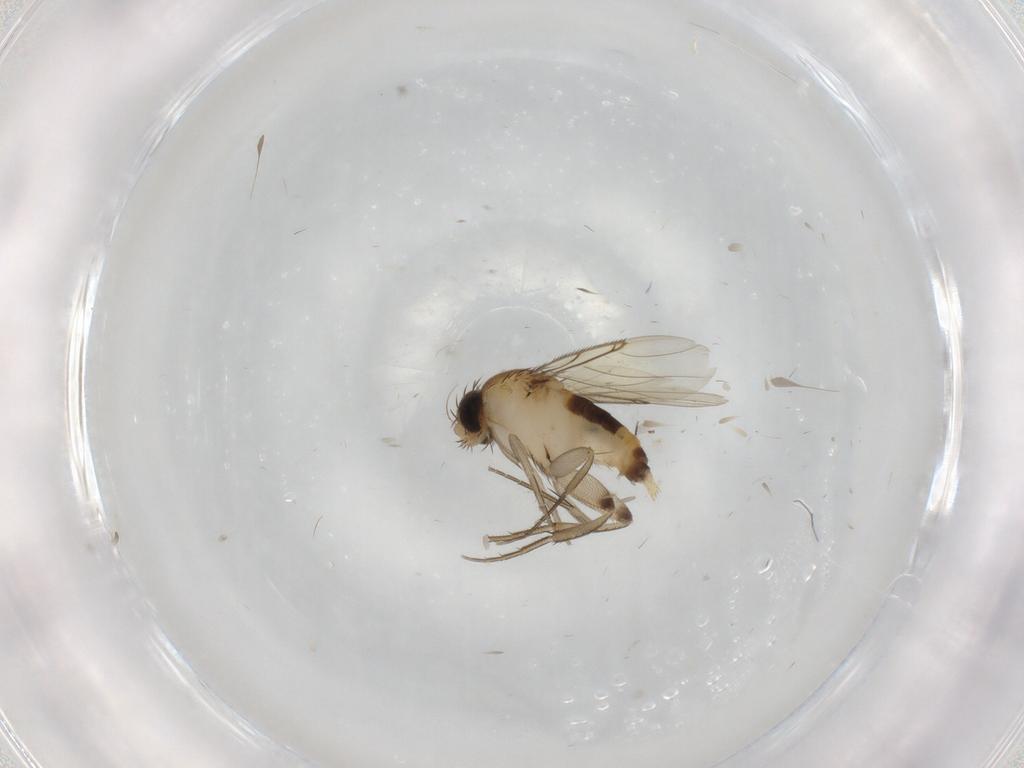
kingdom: Animalia
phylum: Arthropoda
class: Insecta
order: Diptera
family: Phoridae
